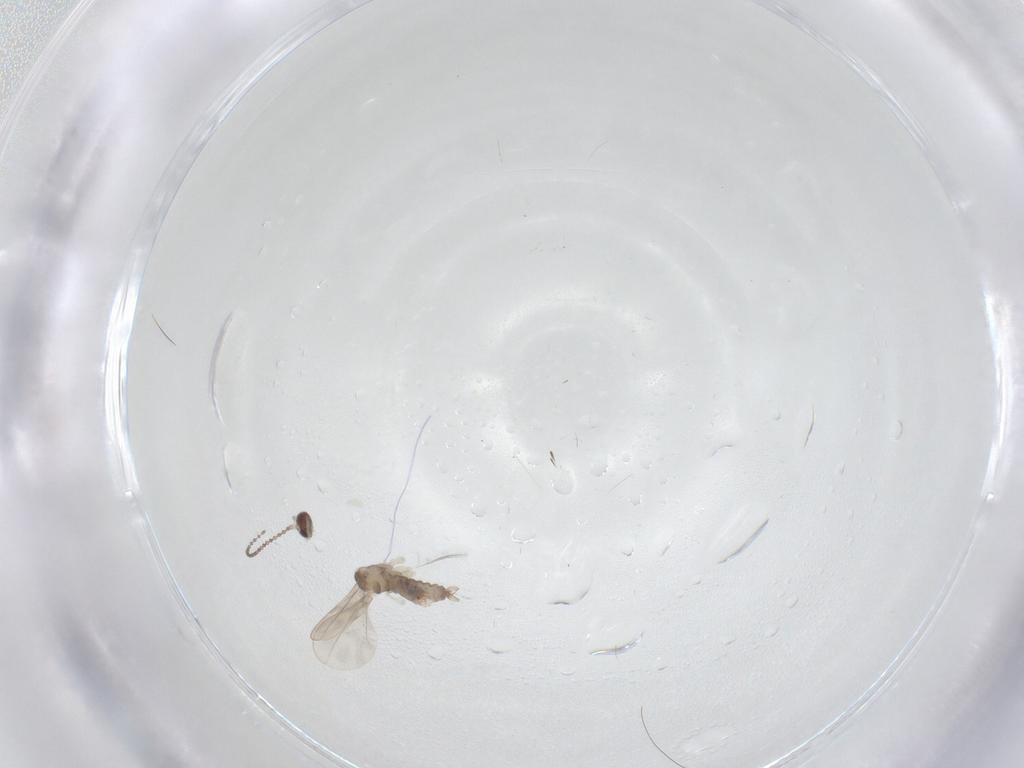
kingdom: Animalia
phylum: Arthropoda
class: Insecta
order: Diptera
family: Cecidomyiidae
